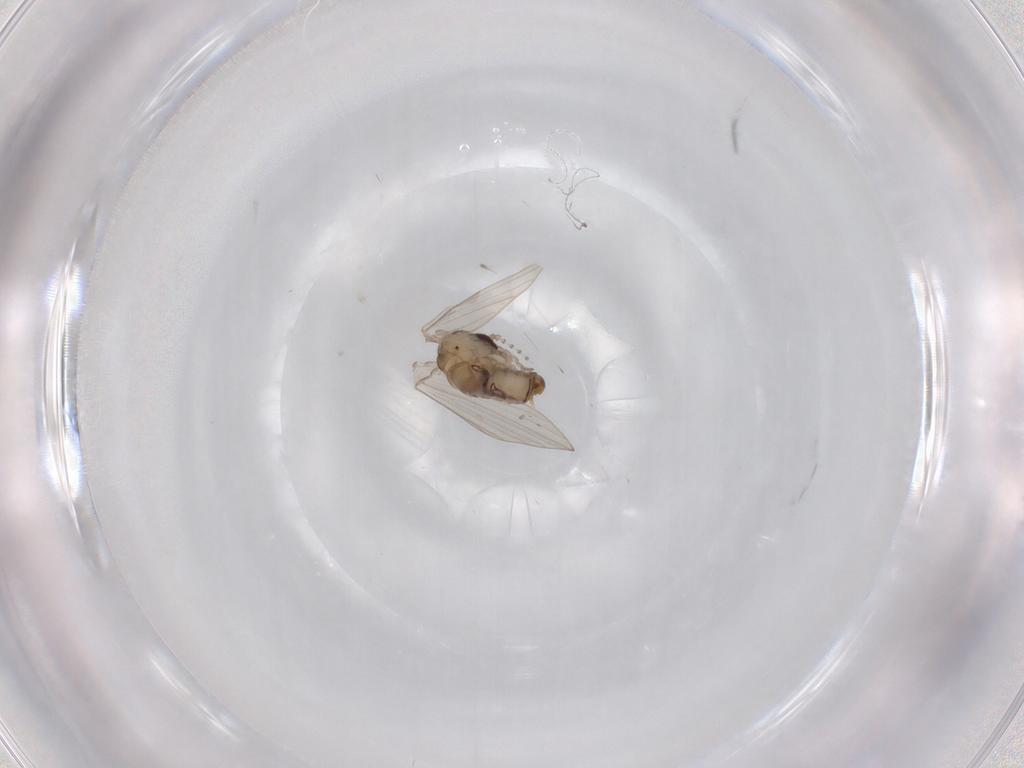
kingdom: Animalia
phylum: Arthropoda
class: Insecta
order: Diptera
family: Psychodidae
